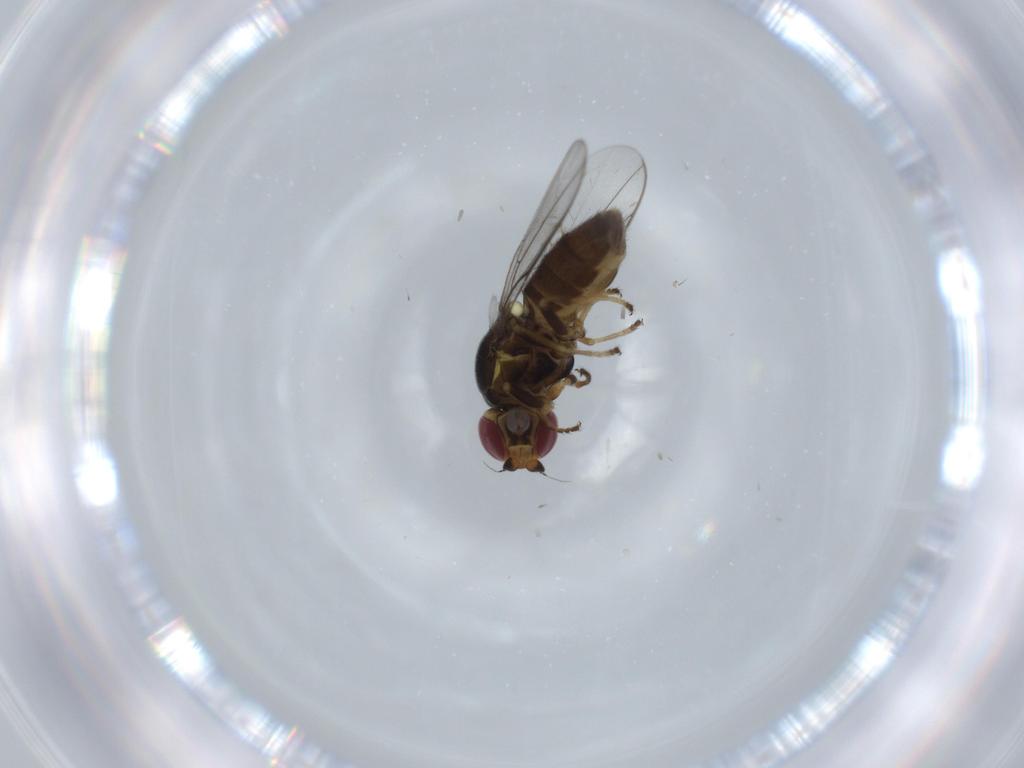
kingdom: Animalia
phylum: Arthropoda
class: Insecta
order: Diptera
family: Chloropidae
